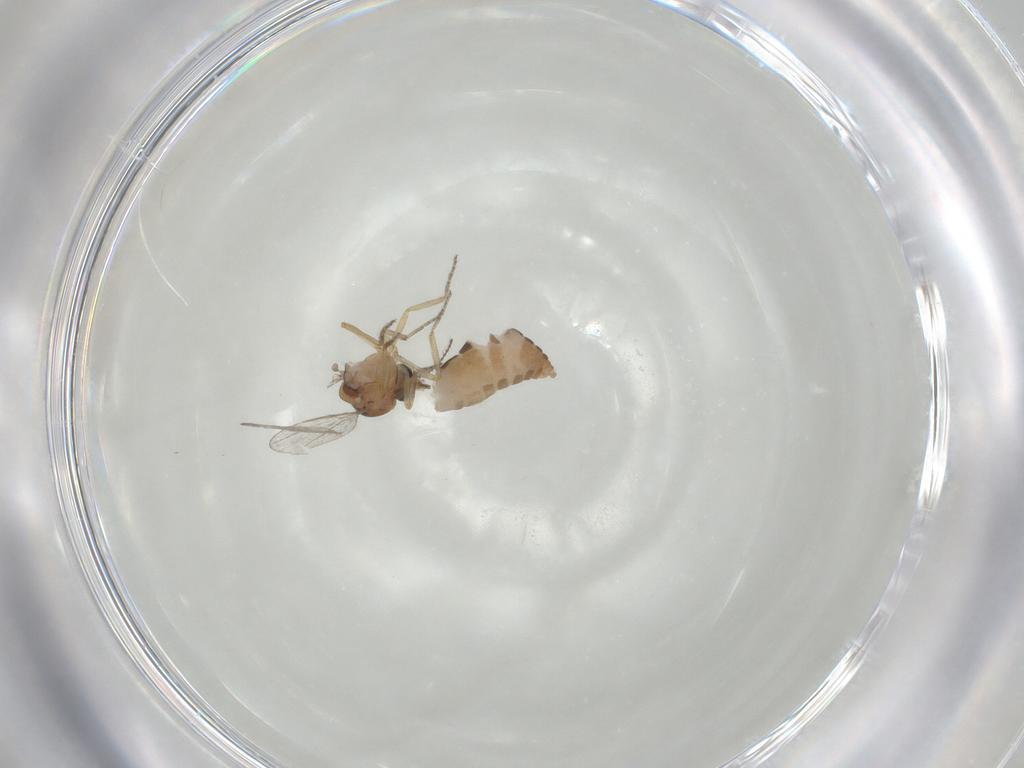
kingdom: Animalia
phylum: Arthropoda
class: Insecta
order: Diptera
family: Ceratopogonidae
